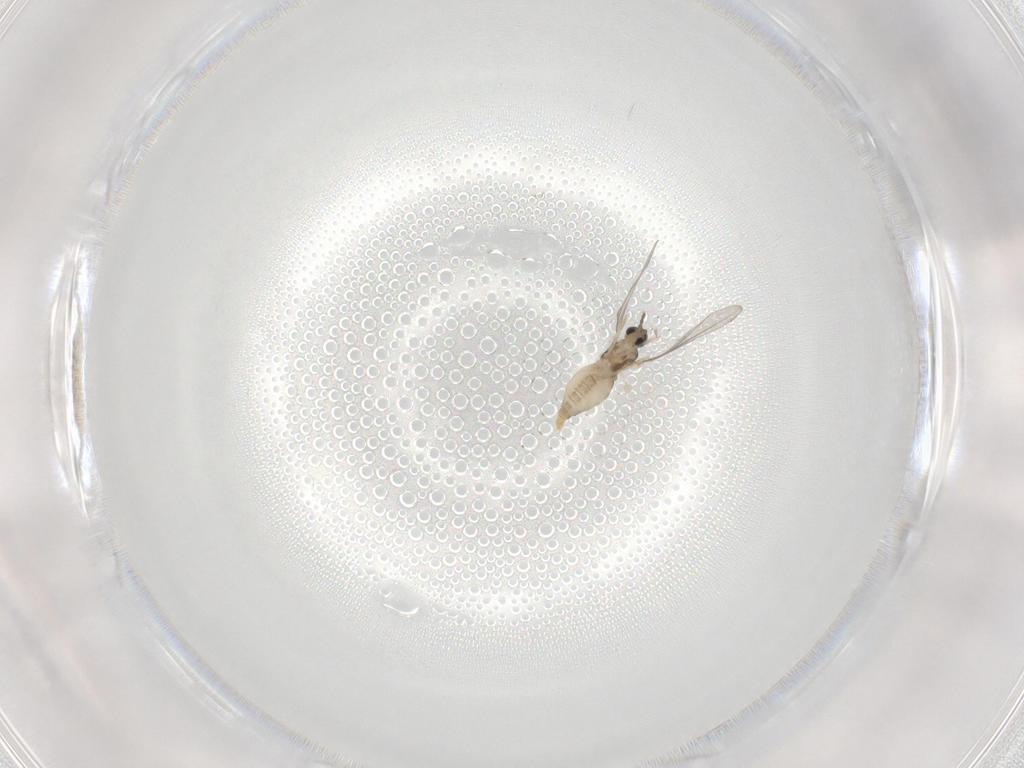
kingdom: Animalia
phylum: Arthropoda
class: Insecta
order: Diptera
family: Cecidomyiidae
